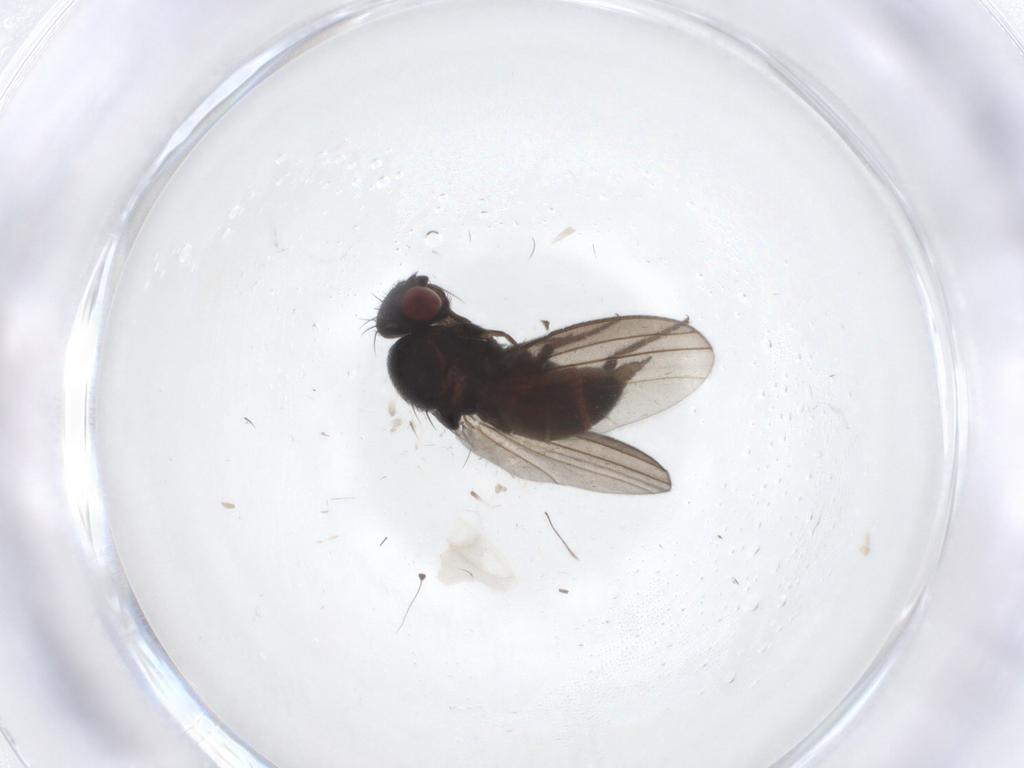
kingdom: Animalia
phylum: Arthropoda
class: Insecta
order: Diptera
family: Milichiidae
